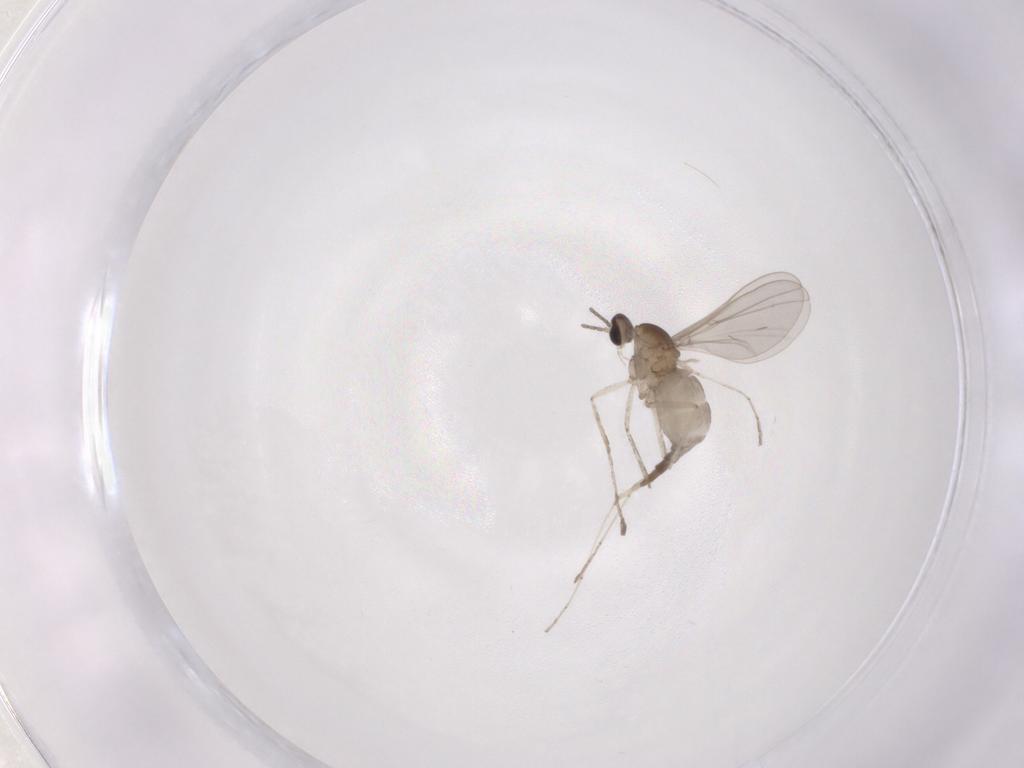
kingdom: Animalia
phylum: Arthropoda
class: Insecta
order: Diptera
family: Cecidomyiidae
